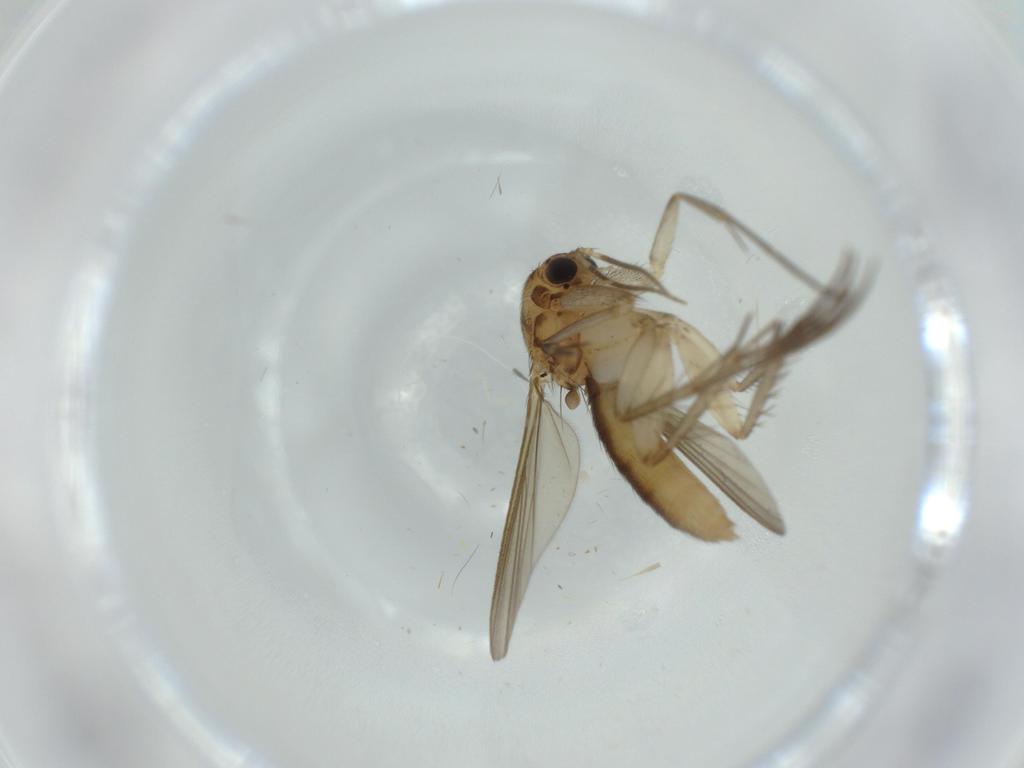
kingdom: Animalia
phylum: Arthropoda
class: Insecta
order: Diptera
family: Mycetophilidae
